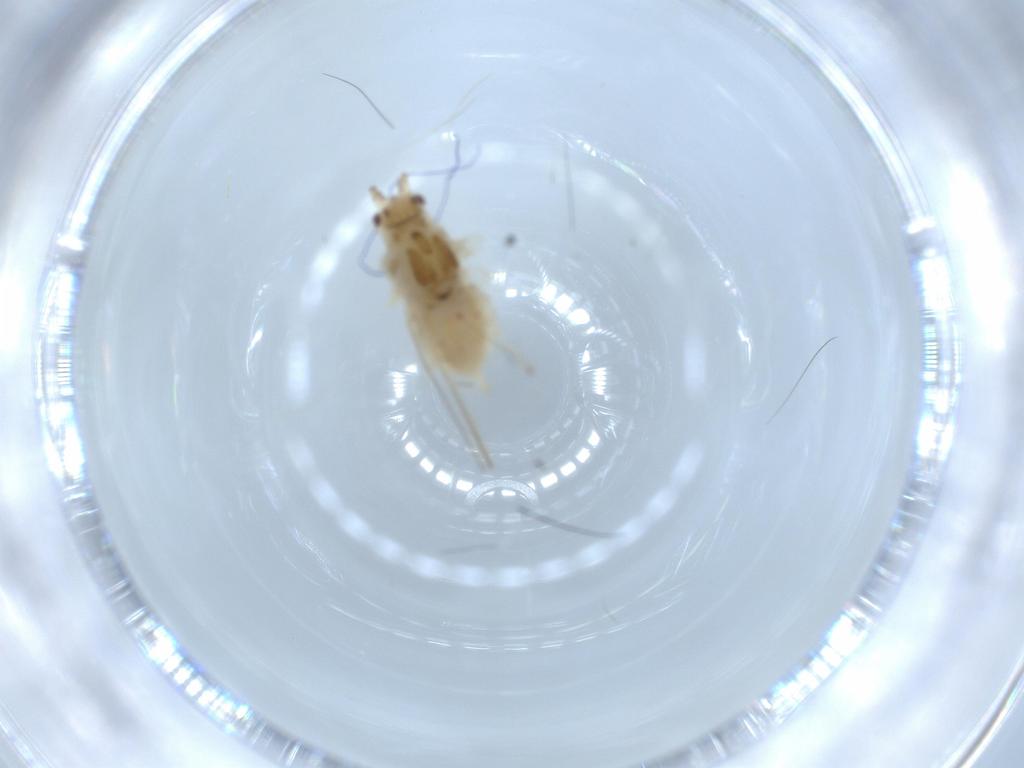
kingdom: Animalia
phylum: Arthropoda
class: Insecta
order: Hemiptera
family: Aphididae
